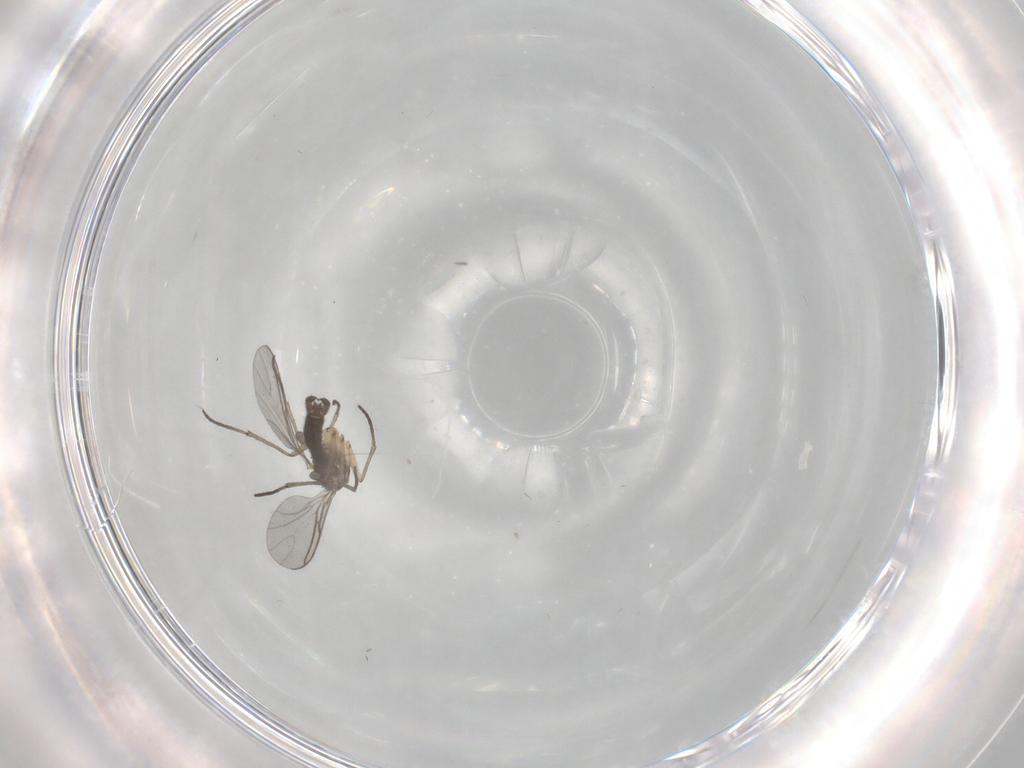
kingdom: Animalia
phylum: Arthropoda
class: Insecta
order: Diptera
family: Sciaridae
